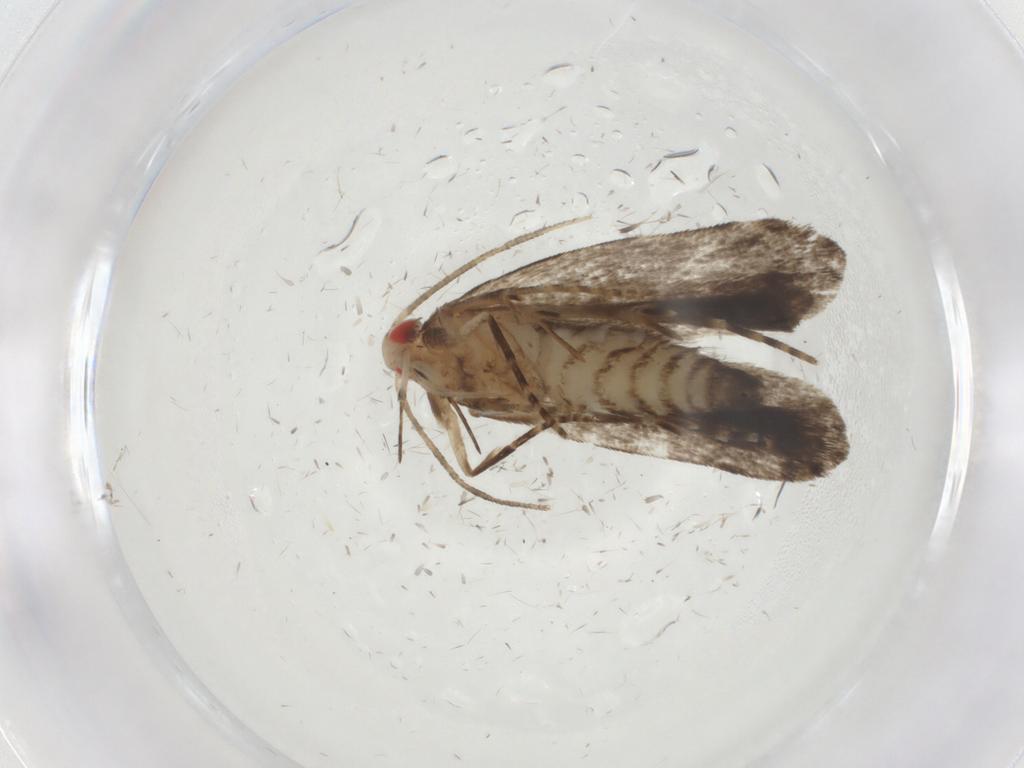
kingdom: Animalia
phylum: Arthropoda
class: Insecta
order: Lepidoptera
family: Gelechiidae
